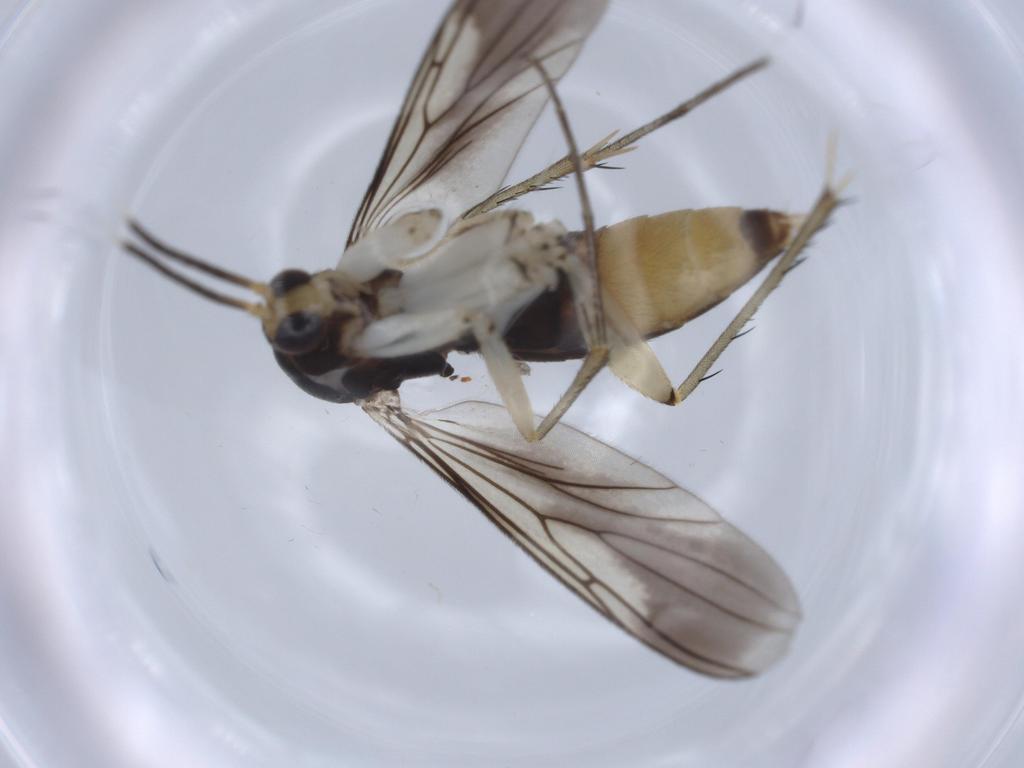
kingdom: Animalia
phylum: Arthropoda
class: Insecta
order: Diptera
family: Mycetophilidae
